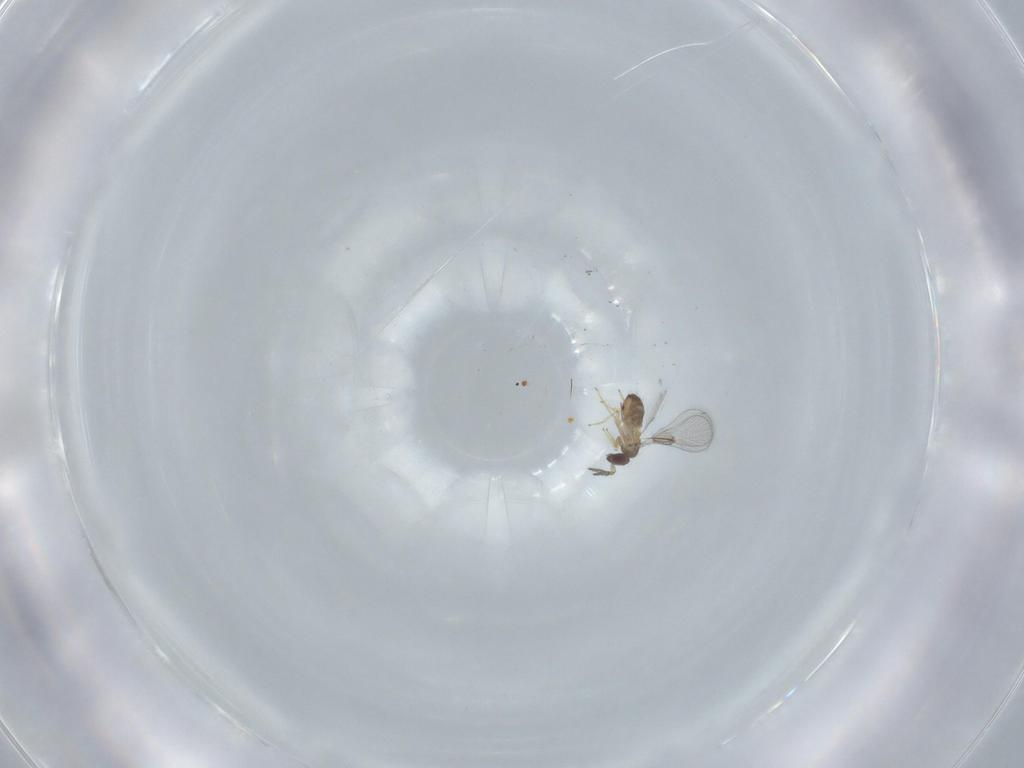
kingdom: Animalia
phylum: Arthropoda
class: Insecta
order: Hymenoptera
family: Trichogrammatidae
